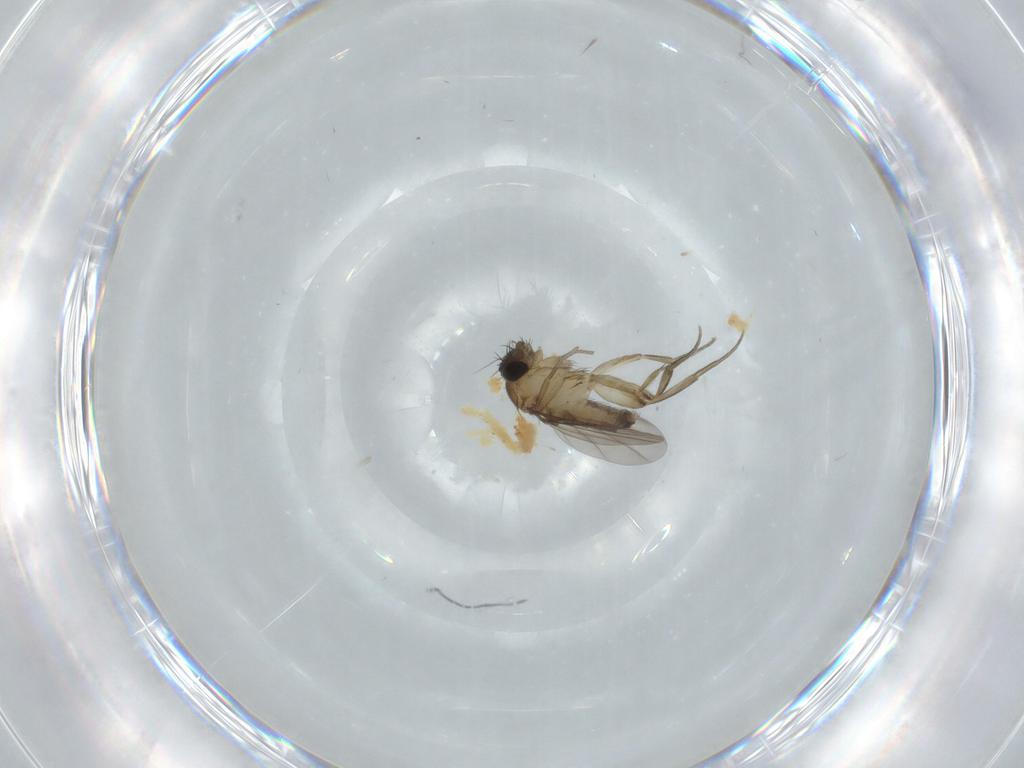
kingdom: Animalia
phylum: Arthropoda
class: Insecta
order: Diptera
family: Phoridae
